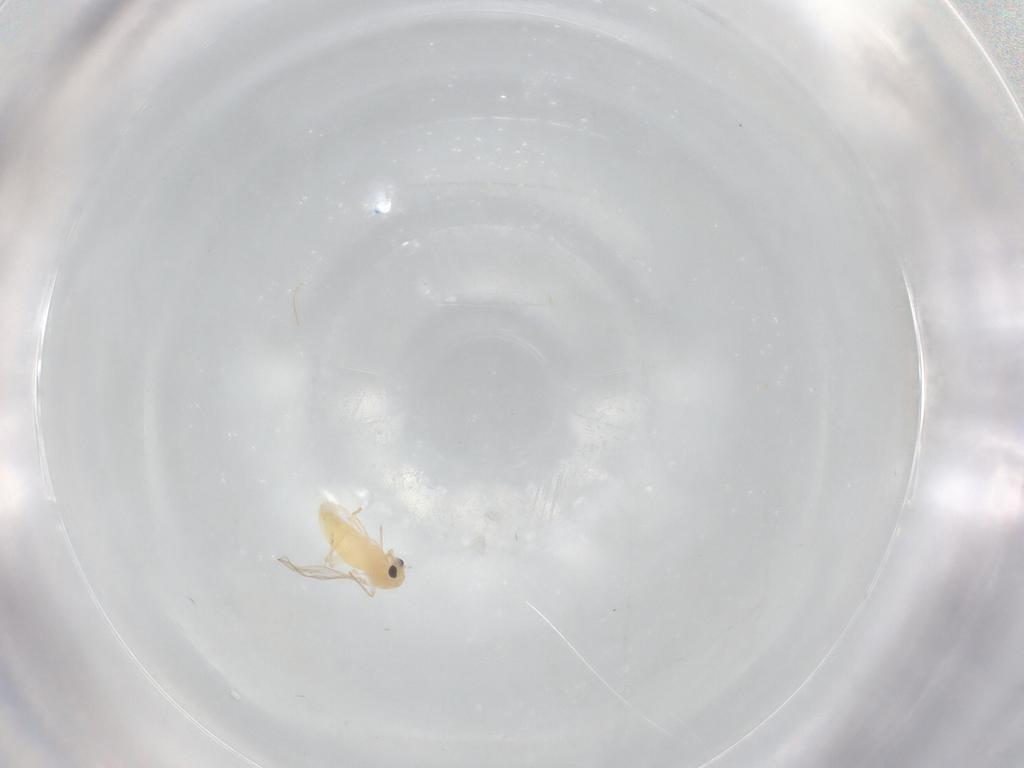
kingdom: Animalia
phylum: Arthropoda
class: Insecta
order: Diptera
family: Chironomidae
